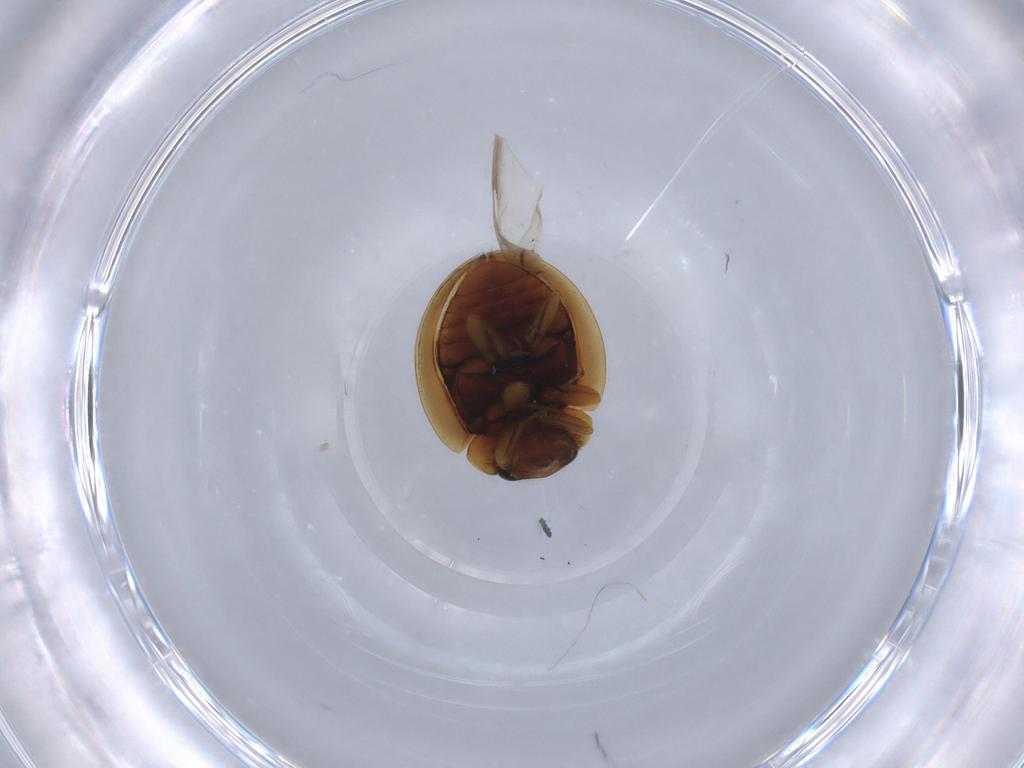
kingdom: Animalia
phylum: Arthropoda
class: Insecta
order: Coleoptera
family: Coccinellidae
